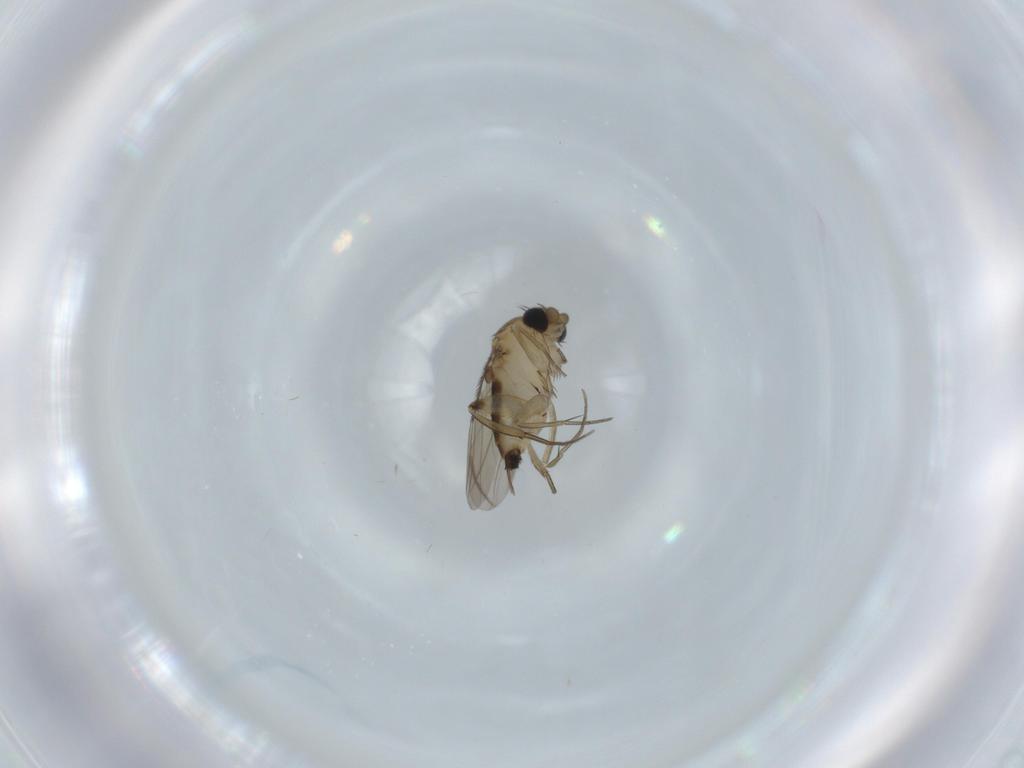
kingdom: Animalia
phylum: Arthropoda
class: Insecta
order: Diptera
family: Phoridae
